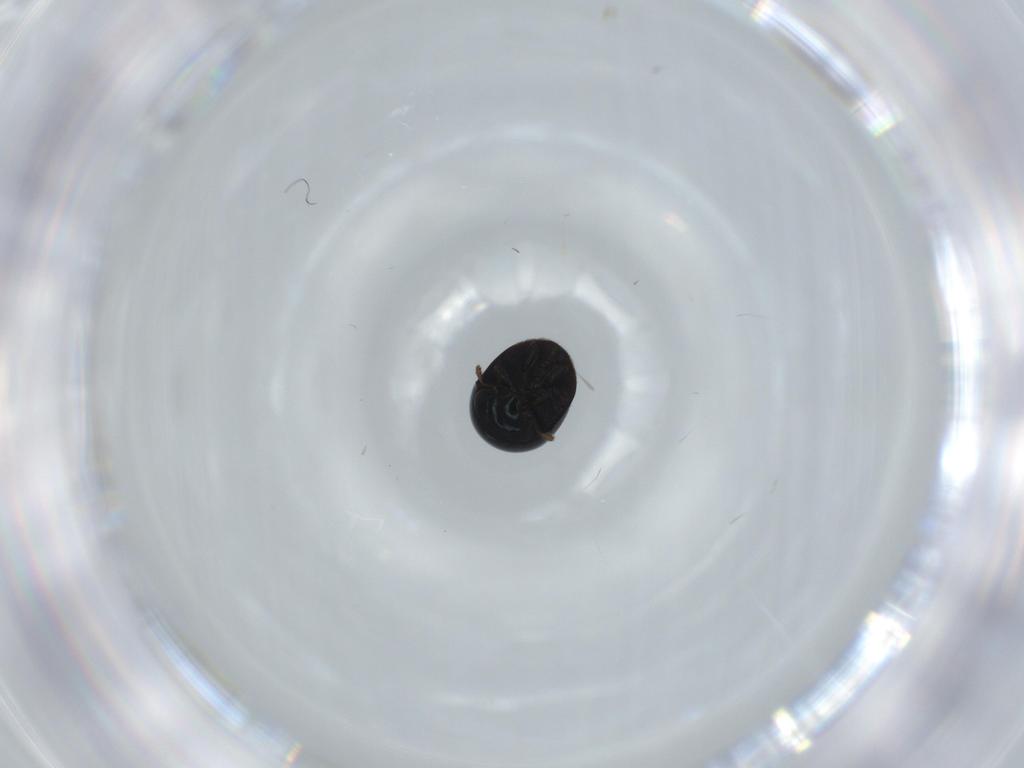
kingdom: Animalia
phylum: Arthropoda
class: Insecta
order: Coleoptera
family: Cybocephalidae
